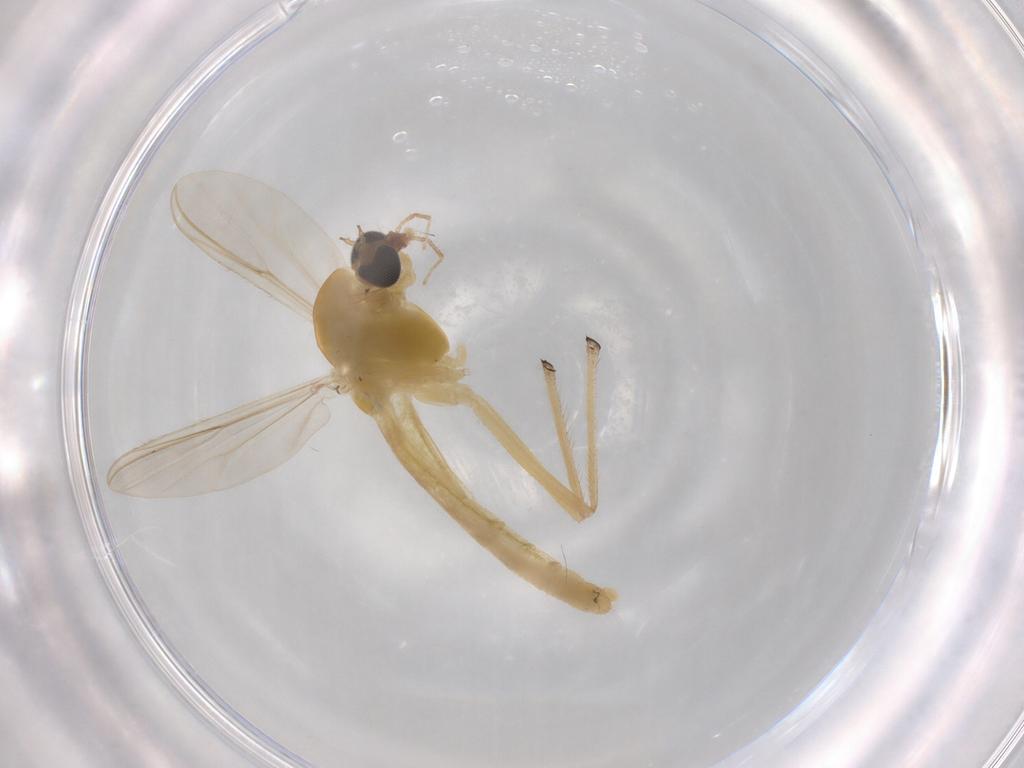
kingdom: Animalia
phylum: Arthropoda
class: Insecta
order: Diptera
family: Chironomidae
